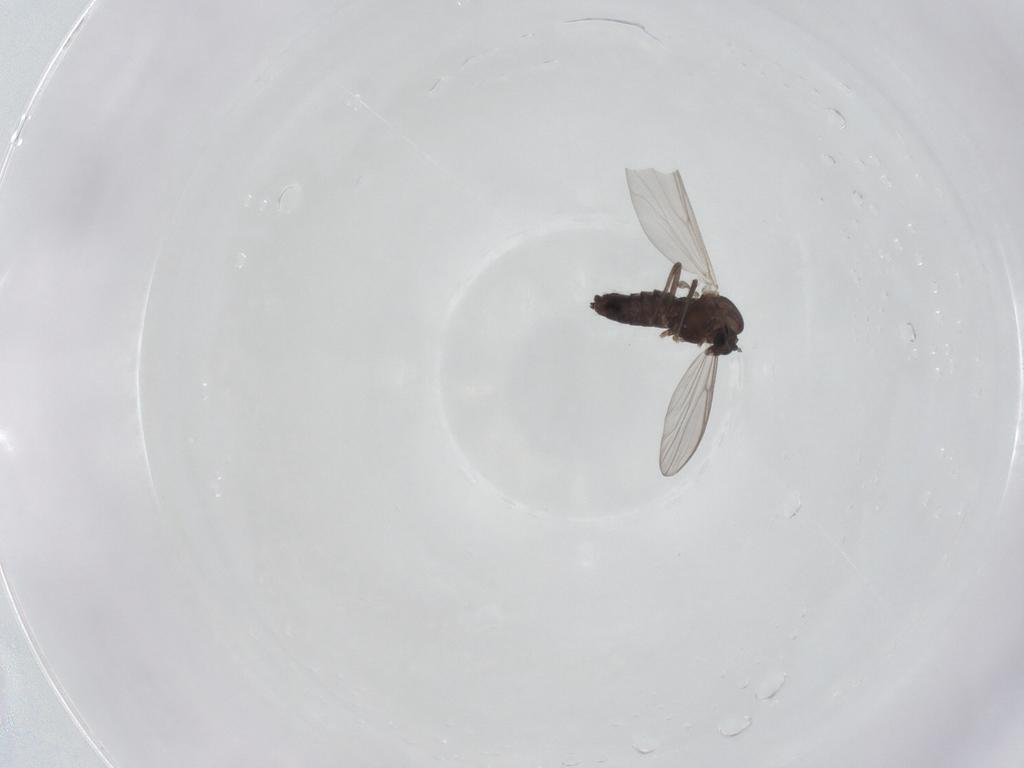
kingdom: Animalia
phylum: Arthropoda
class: Insecta
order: Diptera
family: Chironomidae
